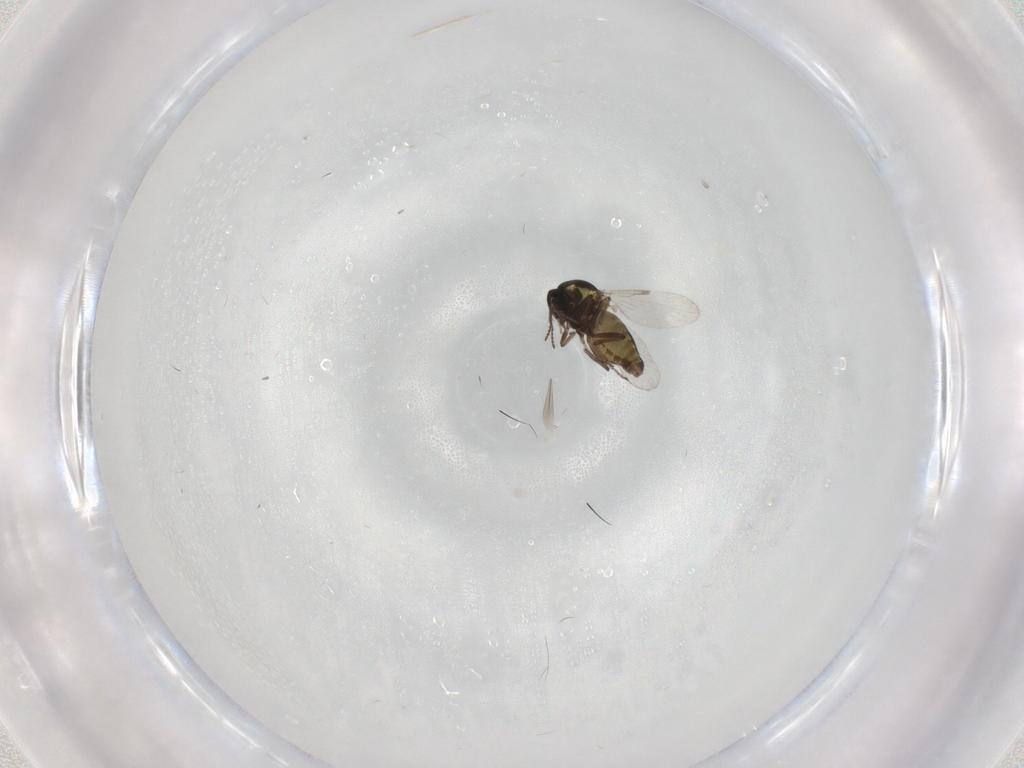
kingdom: Animalia
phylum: Arthropoda
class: Insecta
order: Diptera
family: Ceratopogonidae
